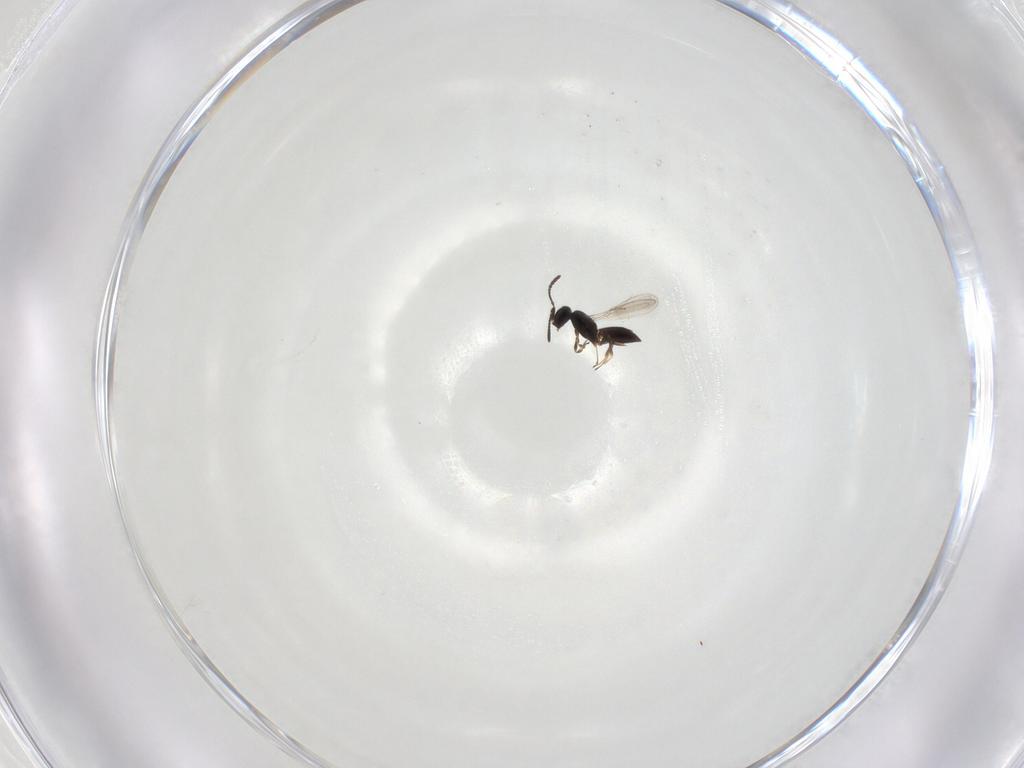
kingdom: Animalia
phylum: Arthropoda
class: Insecta
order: Hymenoptera
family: Scelionidae
